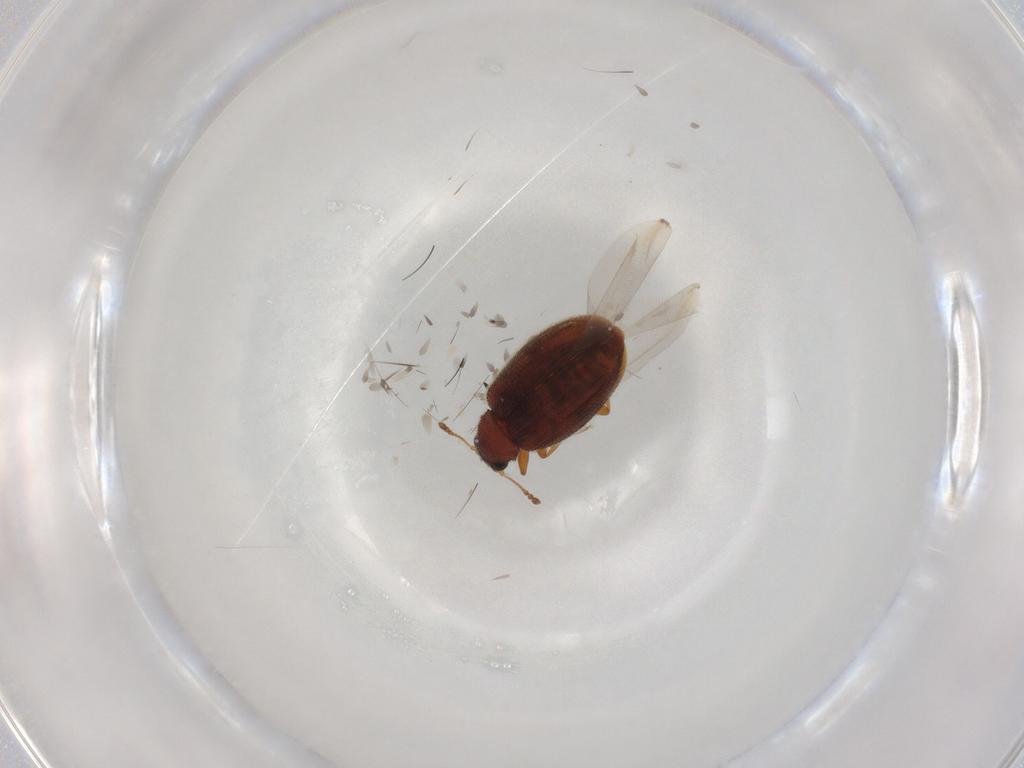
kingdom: Animalia
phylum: Arthropoda
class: Insecta
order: Coleoptera
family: Latridiidae
